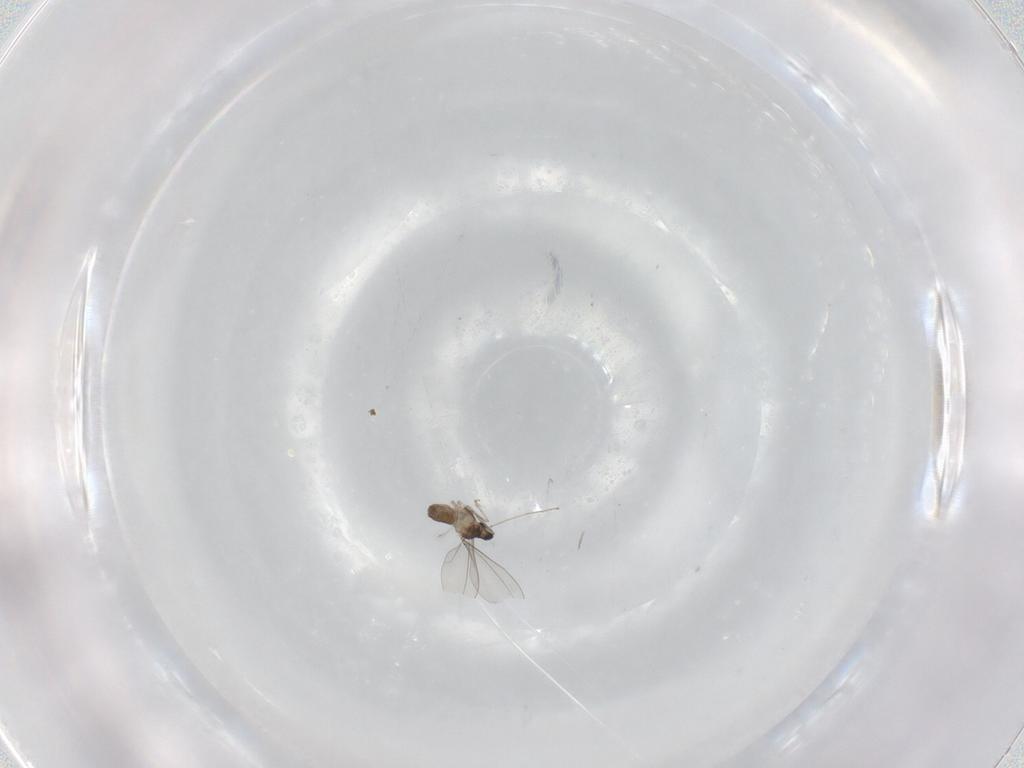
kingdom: Animalia
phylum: Arthropoda
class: Insecta
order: Diptera
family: Cecidomyiidae
